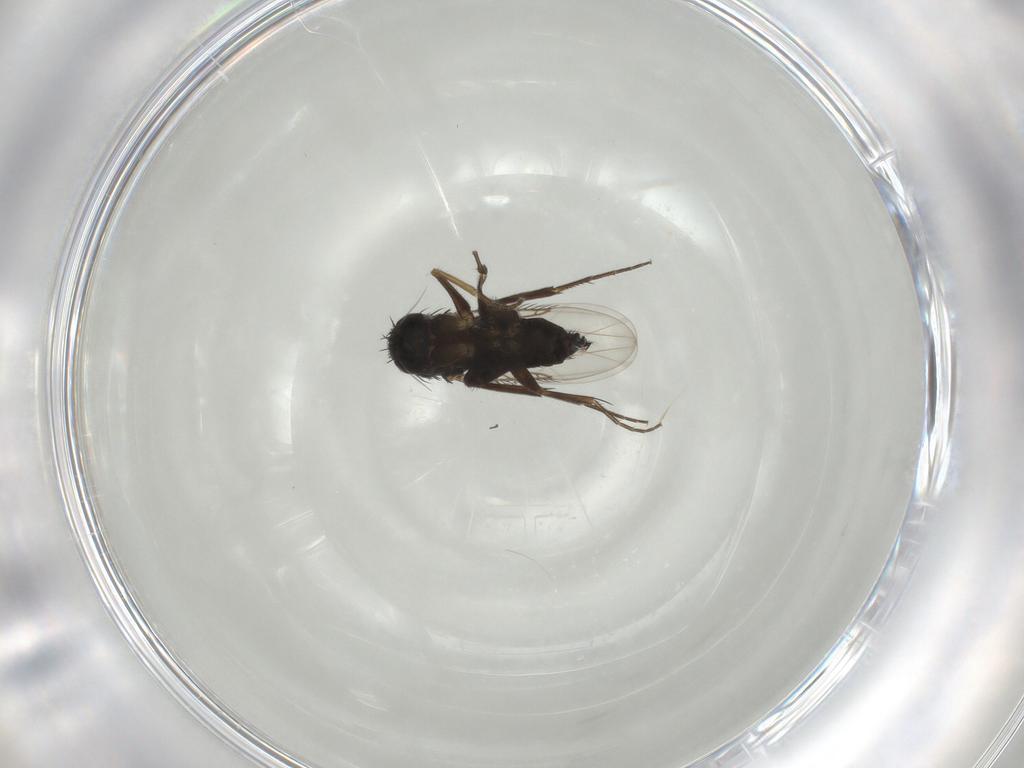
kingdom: Animalia
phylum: Arthropoda
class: Insecta
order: Diptera
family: Phoridae
